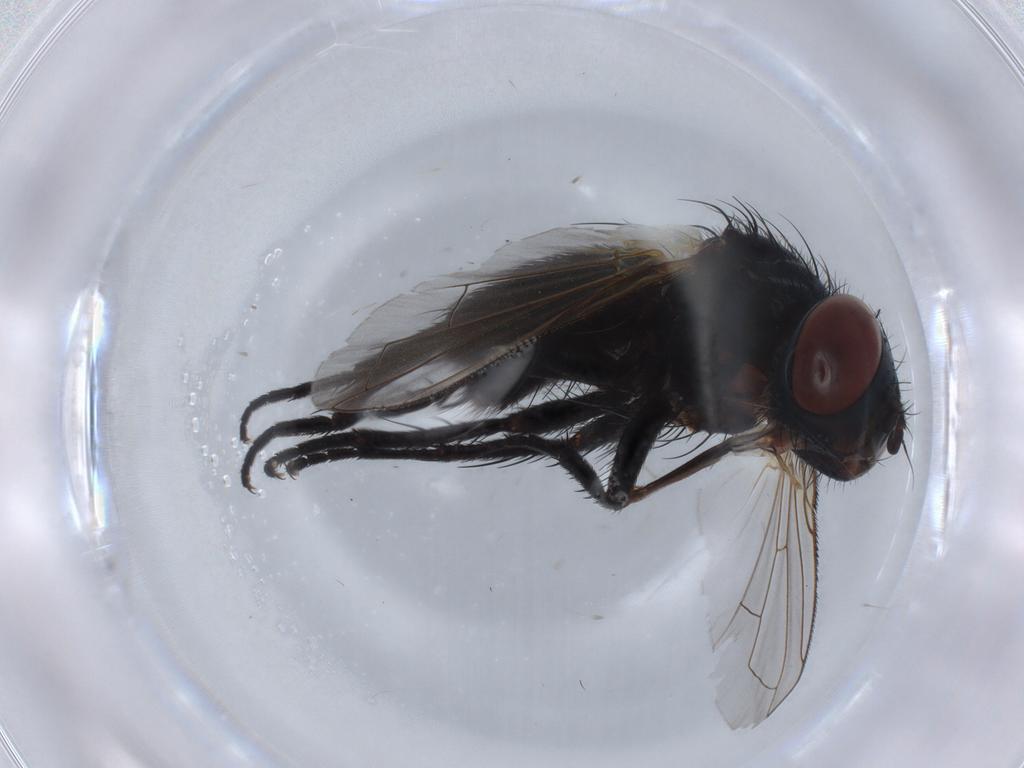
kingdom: Animalia
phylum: Arthropoda
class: Insecta
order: Diptera
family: Tachinidae
